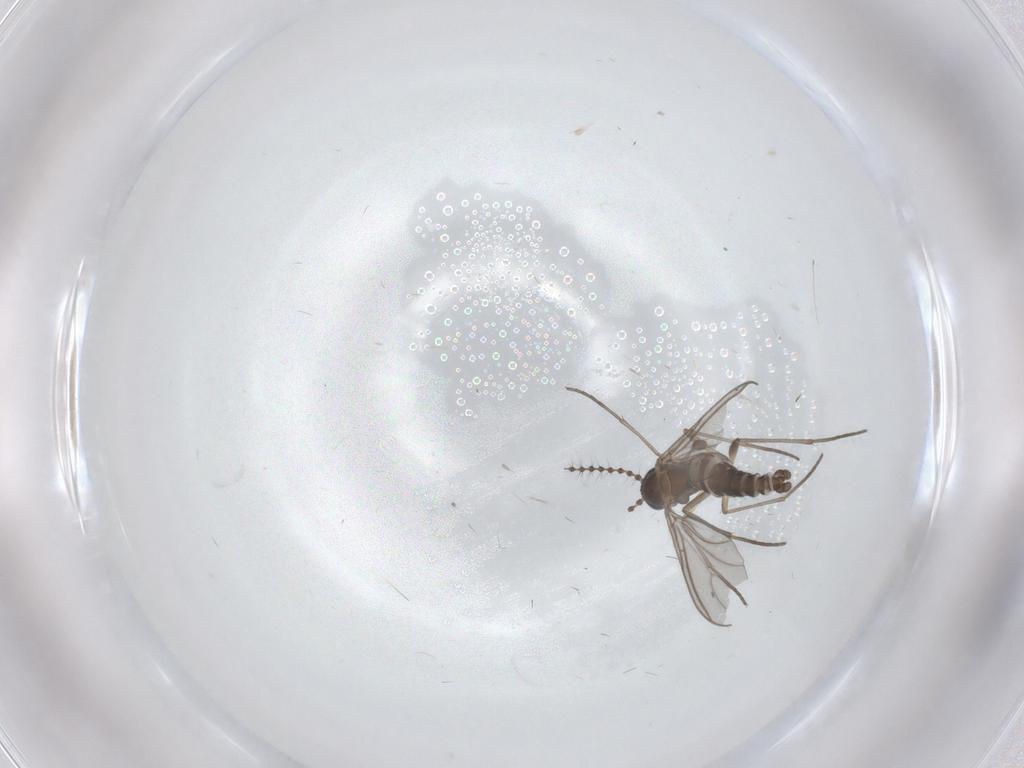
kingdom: Animalia
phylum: Arthropoda
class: Insecta
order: Diptera
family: Sciaridae
